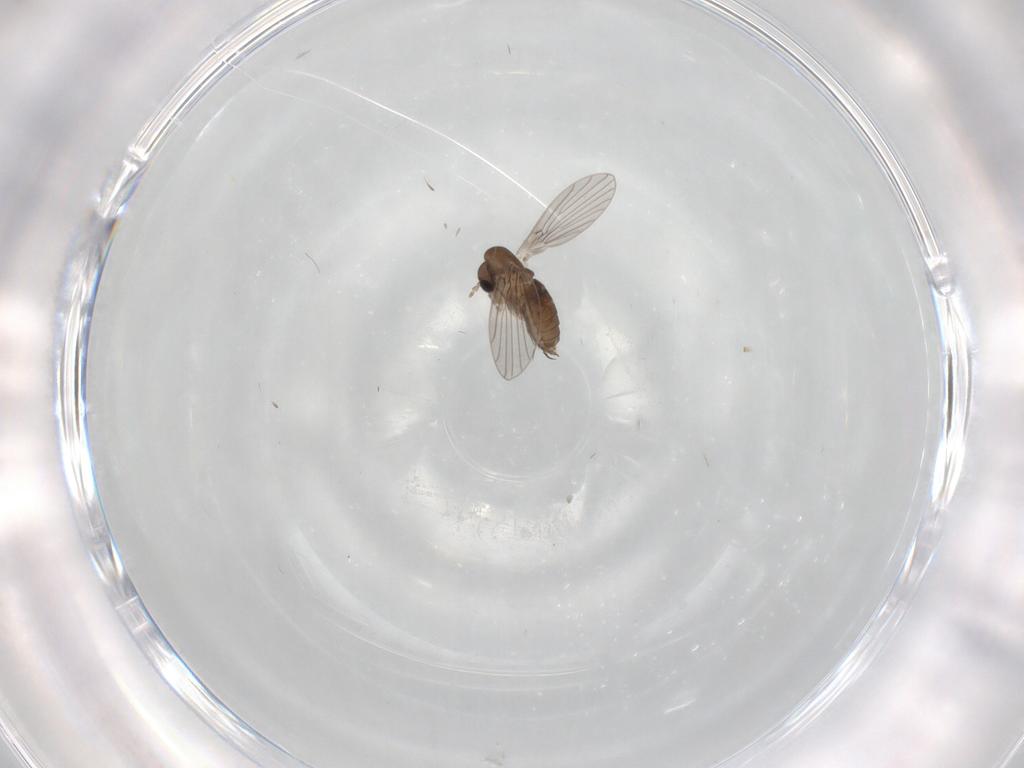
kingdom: Animalia
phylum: Arthropoda
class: Insecta
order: Diptera
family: Phoridae
